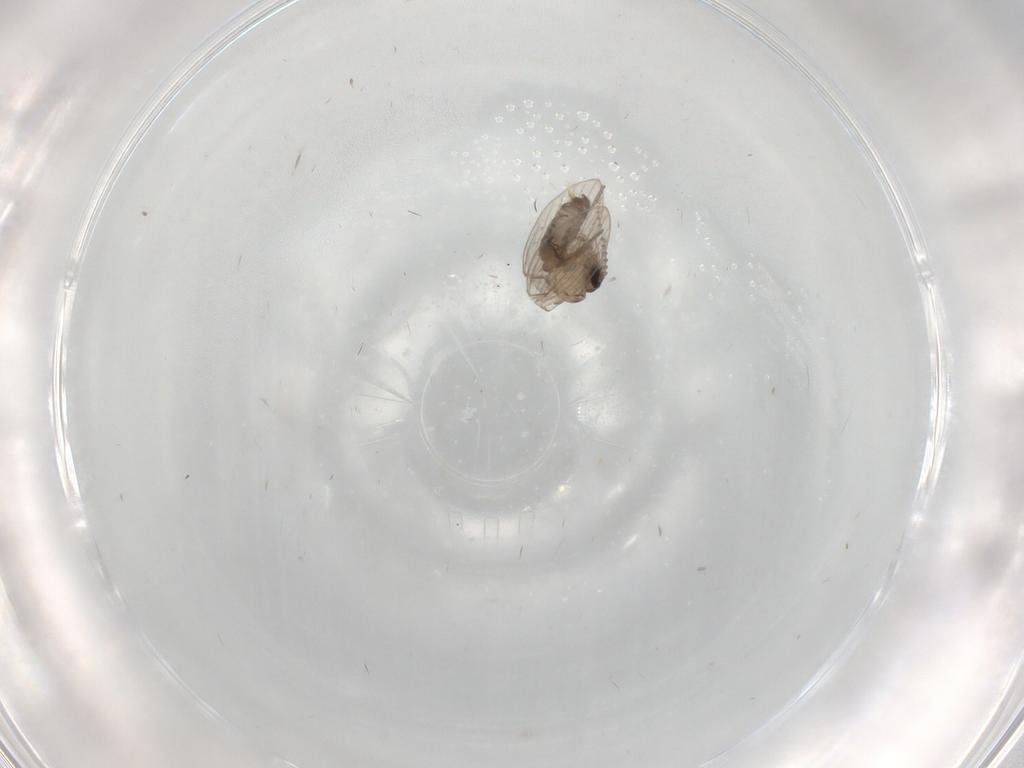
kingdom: Animalia
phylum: Arthropoda
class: Insecta
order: Diptera
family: Psychodidae
